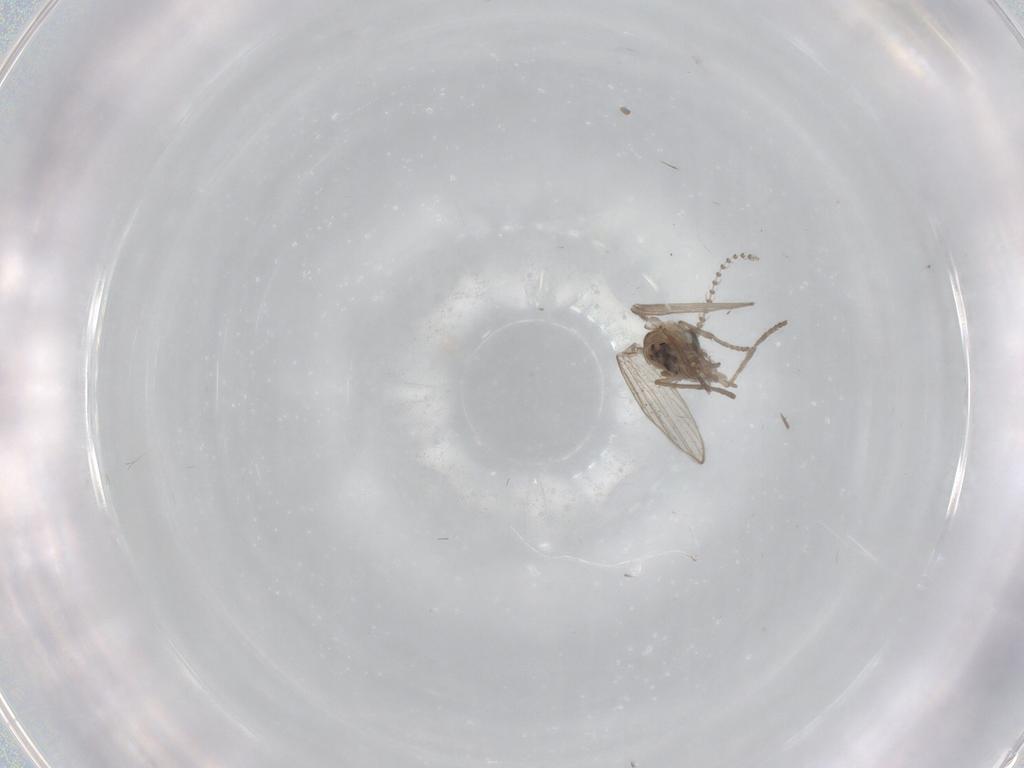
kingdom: Animalia
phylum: Arthropoda
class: Insecta
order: Diptera
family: Psychodidae
